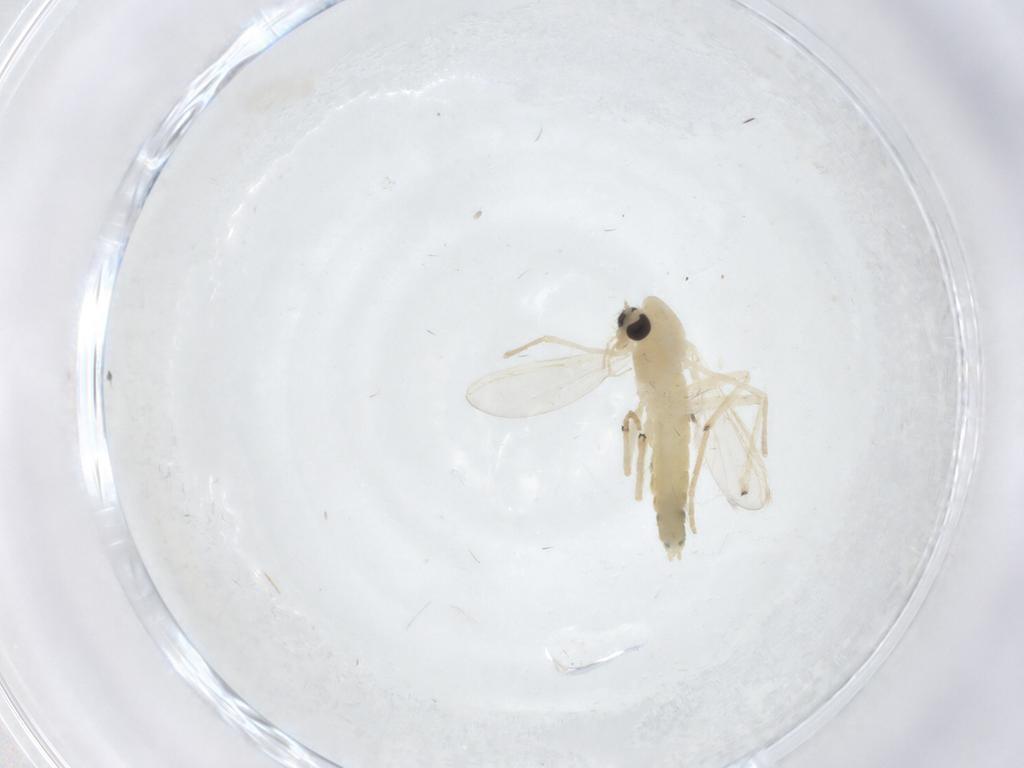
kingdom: Animalia
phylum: Arthropoda
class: Insecta
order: Diptera
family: Chironomidae
